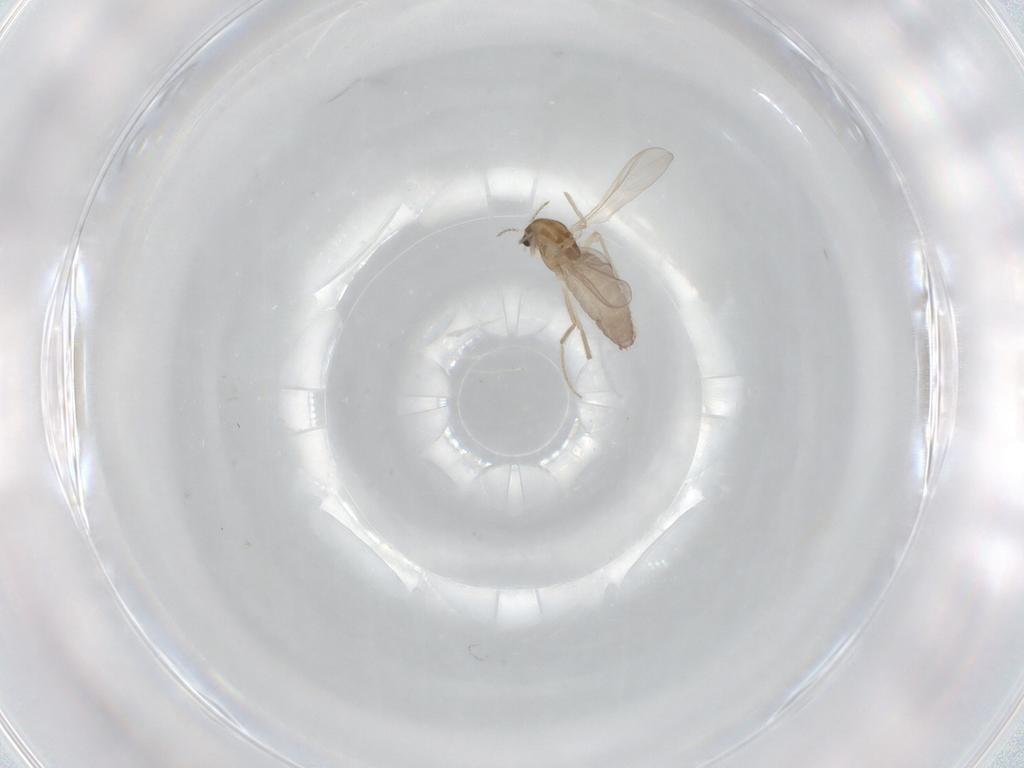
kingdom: Animalia
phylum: Arthropoda
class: Insecta
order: Diptera
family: Chironomidae
